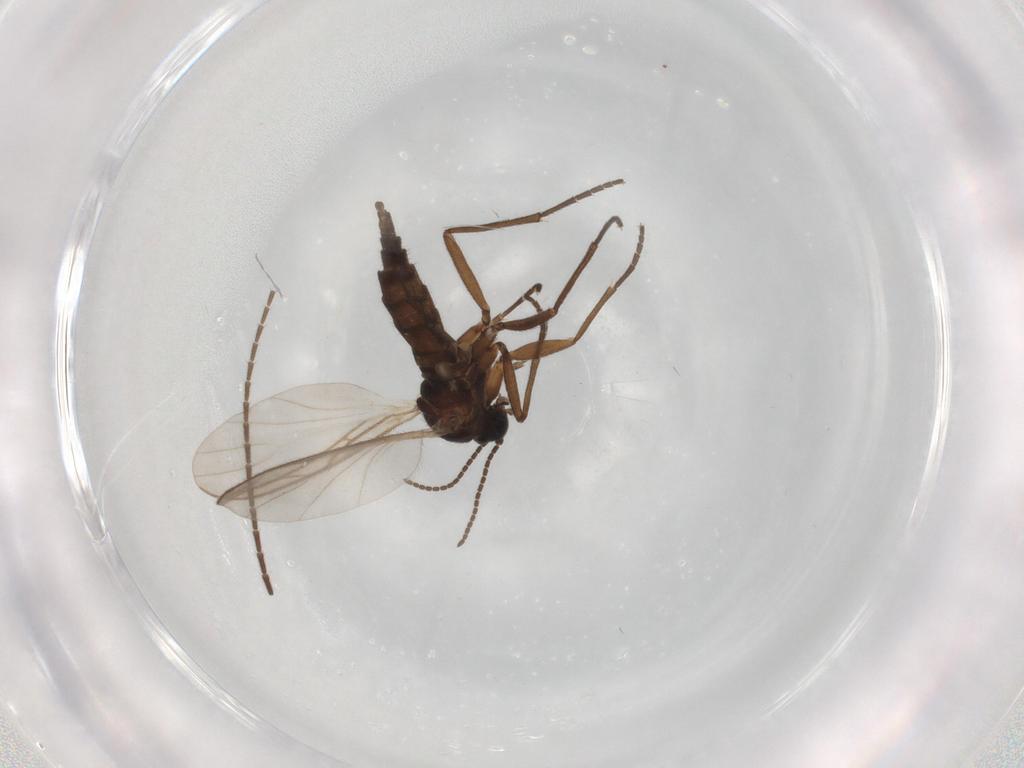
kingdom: Animalia
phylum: Arthropoda
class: Insecta
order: Diptera
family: Sciaridae
